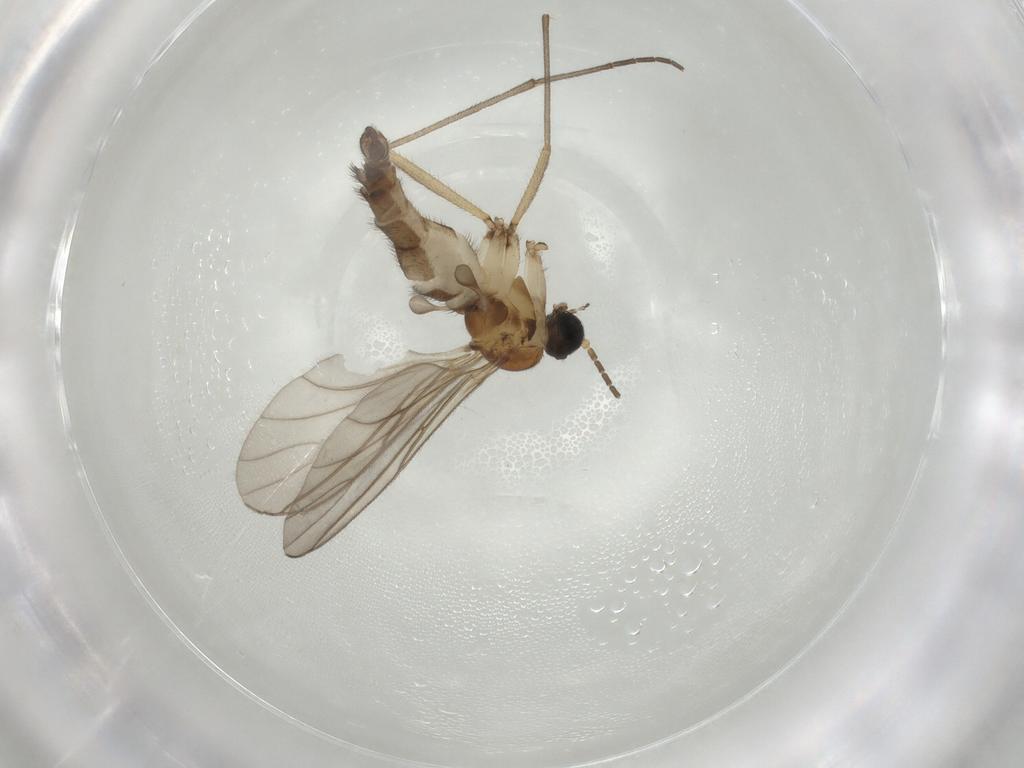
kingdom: Animalia
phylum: Arthropoda
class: Insecta
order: Diptera
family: Sciaridae
